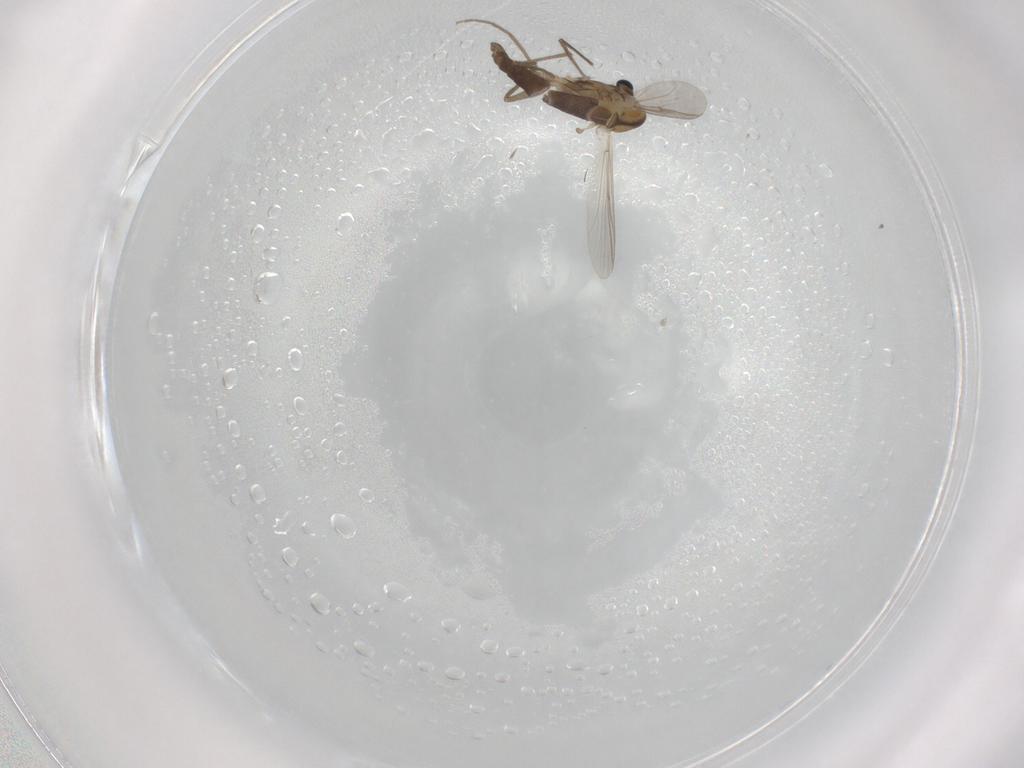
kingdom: Animalia
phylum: Arthropoda
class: Insecta
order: Diptera
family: Chironomidae
